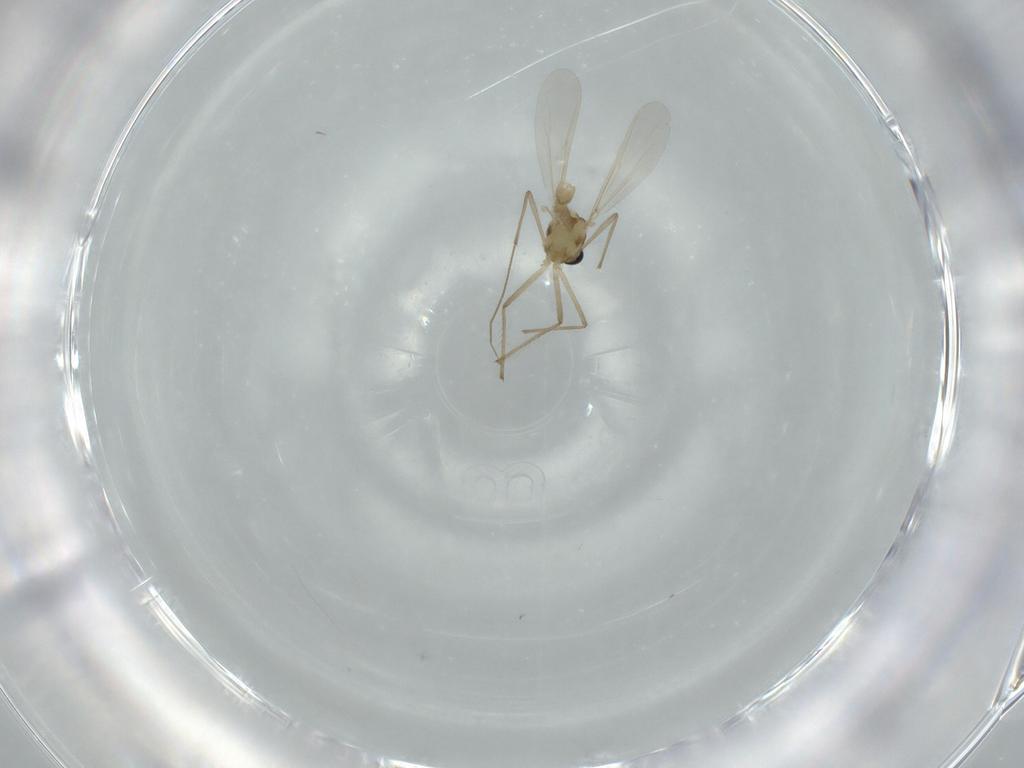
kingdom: Animalia
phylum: Arthropoda
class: Insecta
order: Diptera
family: Chironomidae
